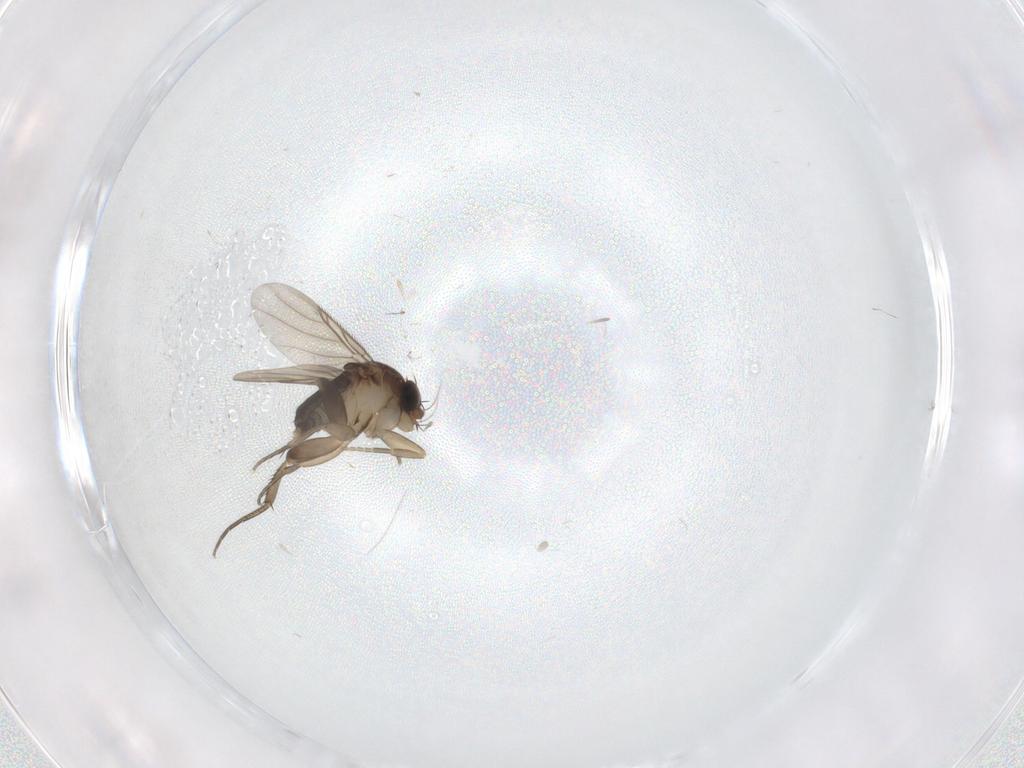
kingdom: Animalia
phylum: Arthropoda
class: Insecta
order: Diptera
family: Phoridae
